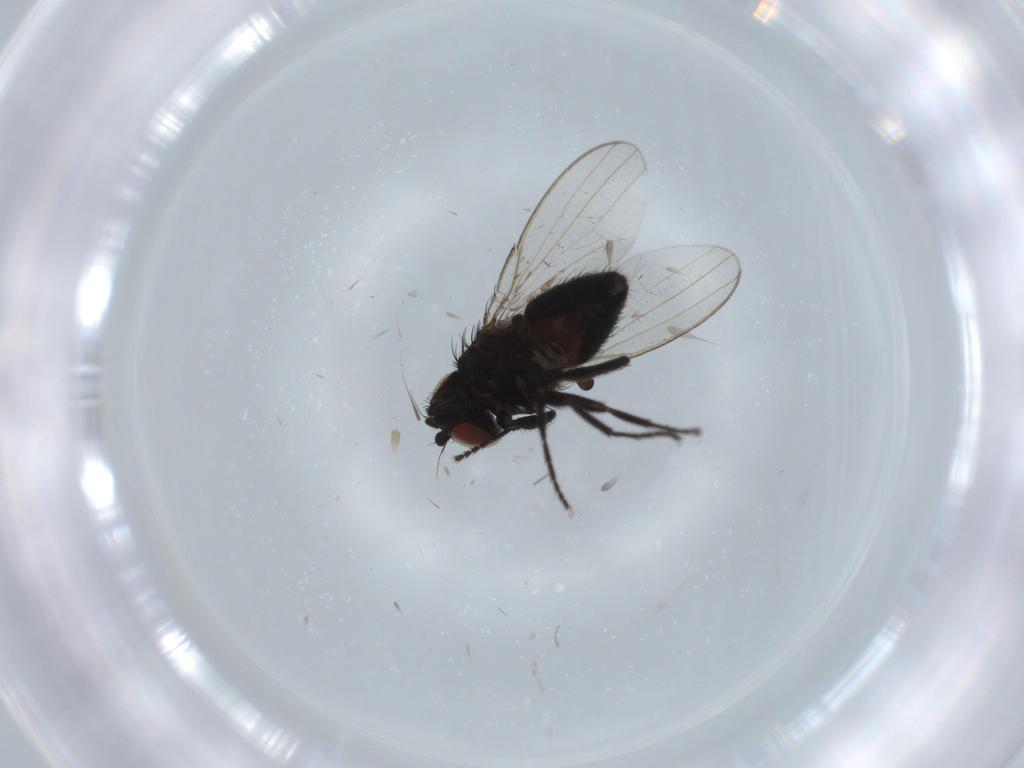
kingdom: Animalia
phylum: Arthropoda
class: Insecta
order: Diptera
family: Milichiidae
